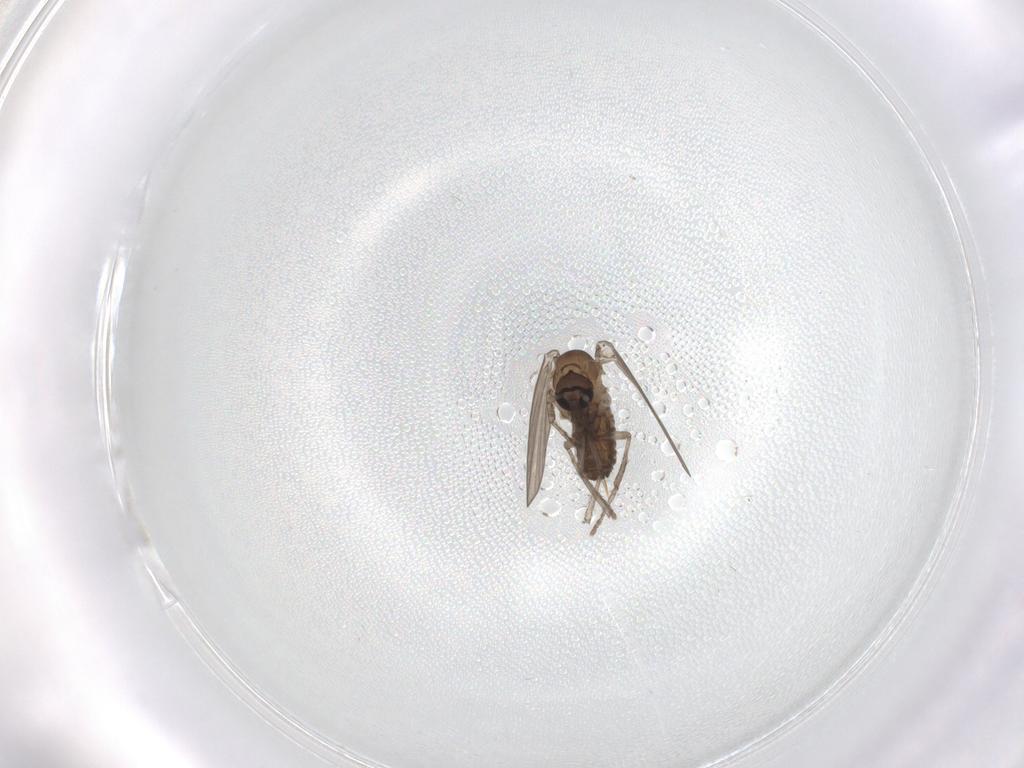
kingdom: Animalia
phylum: Arthropoda
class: Insecta
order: Diptera
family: Psychodidae
